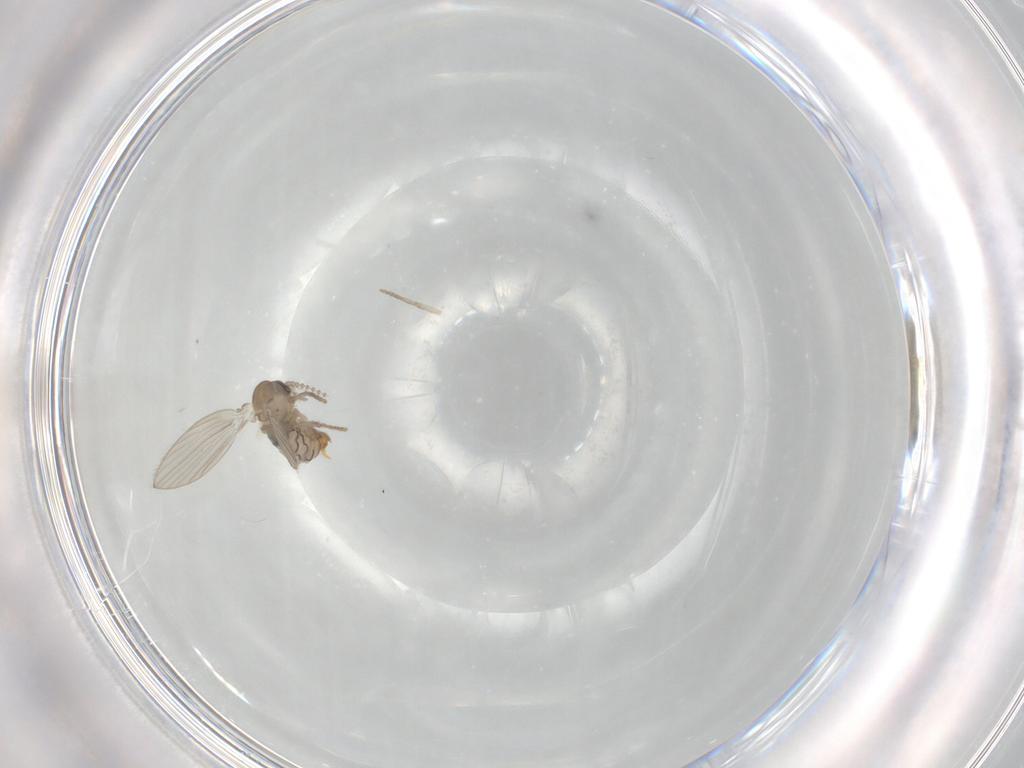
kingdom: Animalia
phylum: Arthropoda
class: Insecta
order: Diptera
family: Psychodidae
